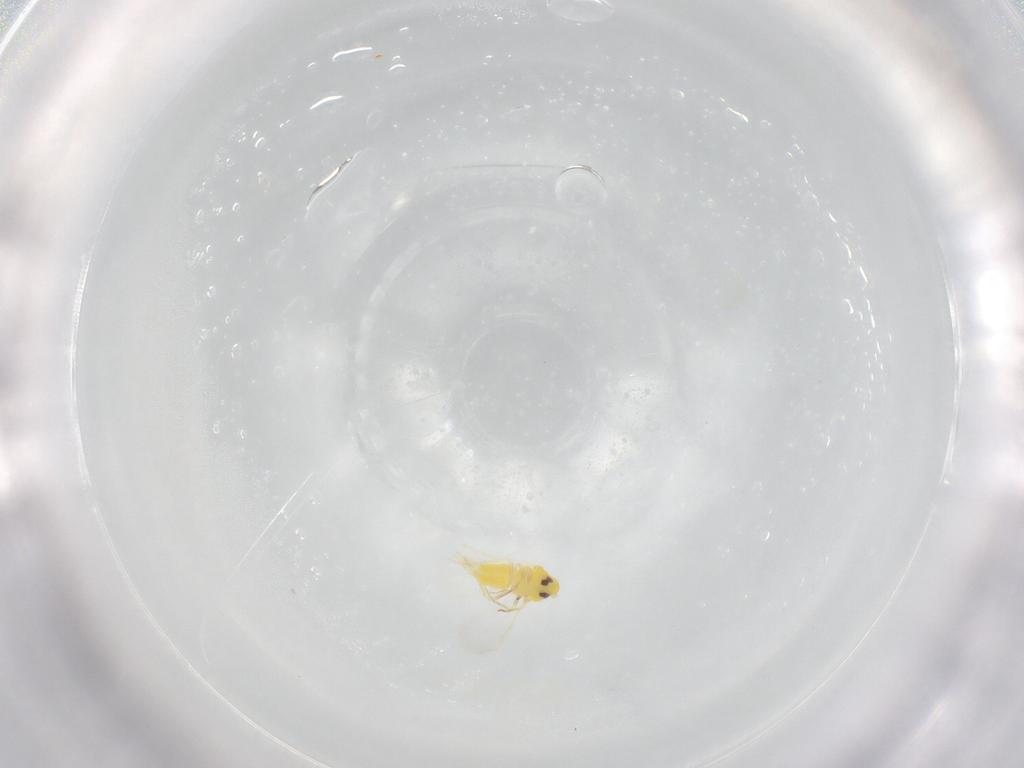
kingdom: Animalia
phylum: Arthropoda
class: Insecta
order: Hemiptera
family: Aleyrodidae
